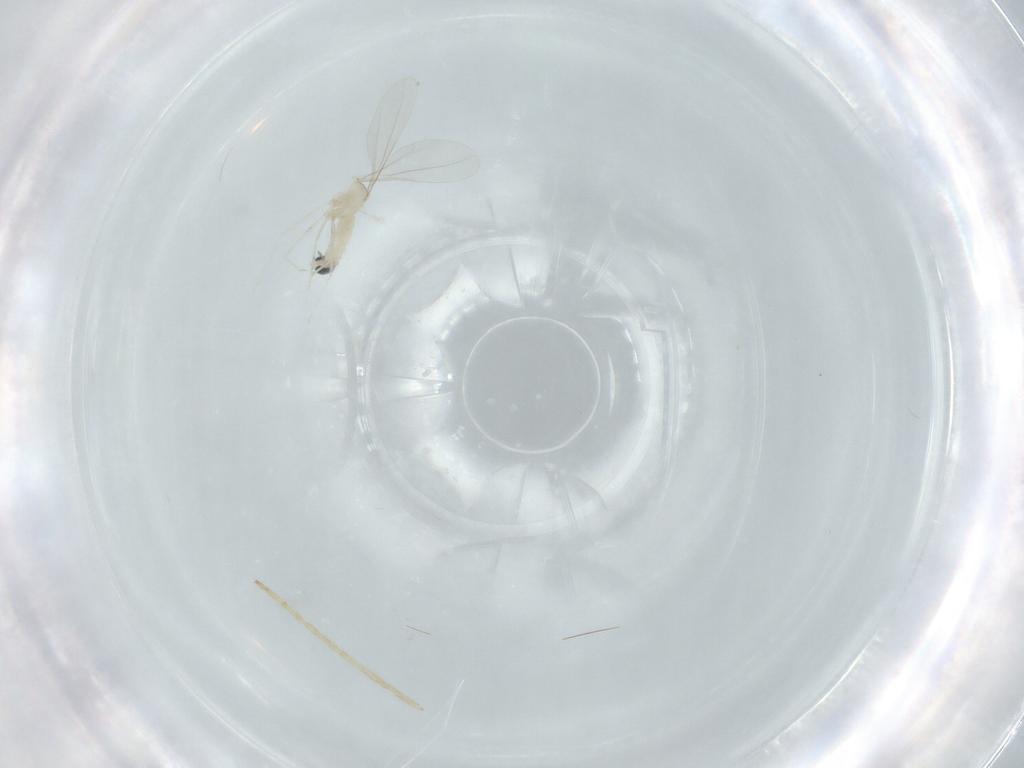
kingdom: Animalia
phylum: Arthropoda
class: Insecta
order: Diptera
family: Chironomidae
